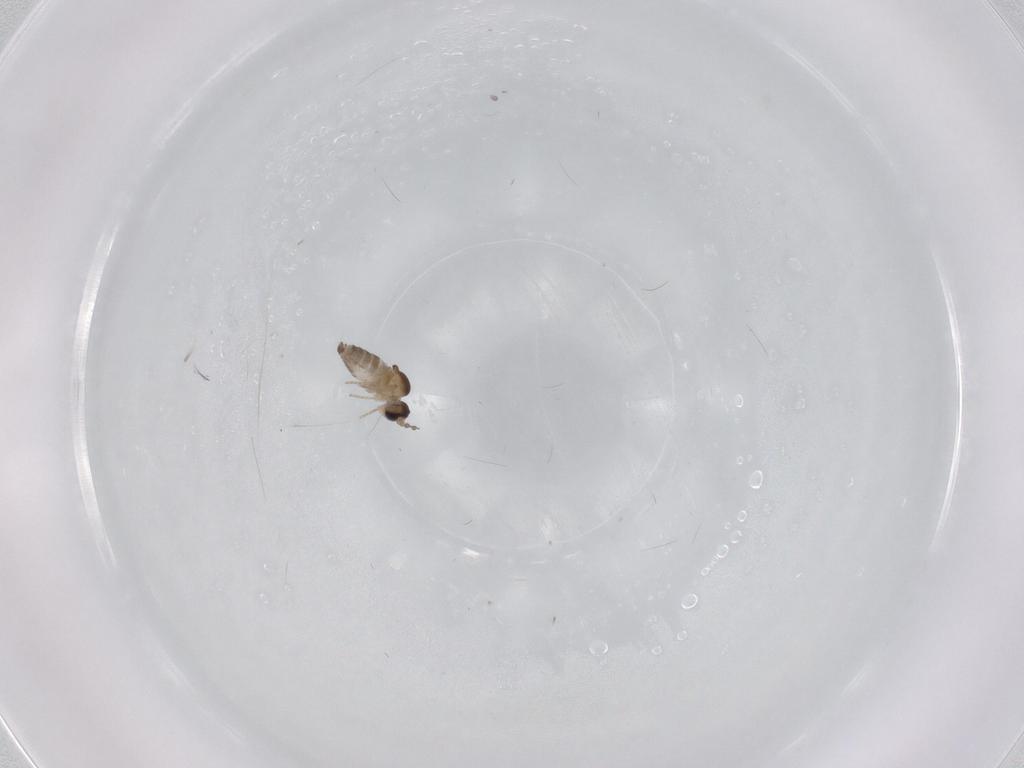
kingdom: Animalia
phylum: Arthropoda
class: Insecta
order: Diptera
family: Cecidomyiidae
